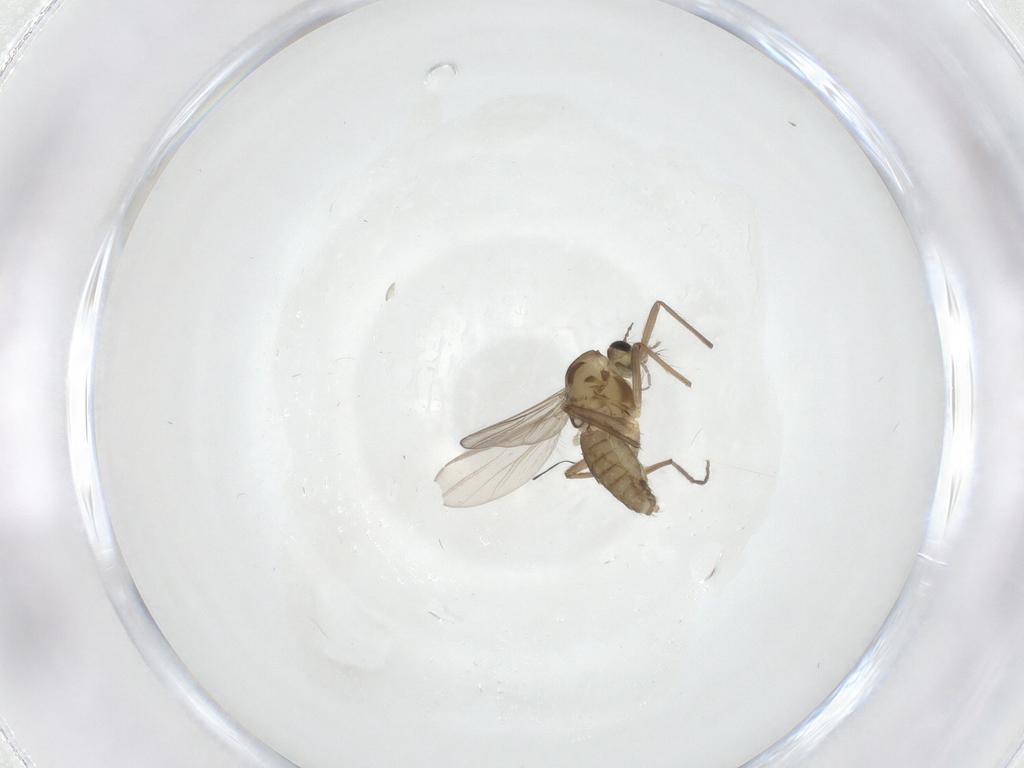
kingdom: Animalia
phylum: Arthropoda
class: Insecta
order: Diptera
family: Chironomidae
